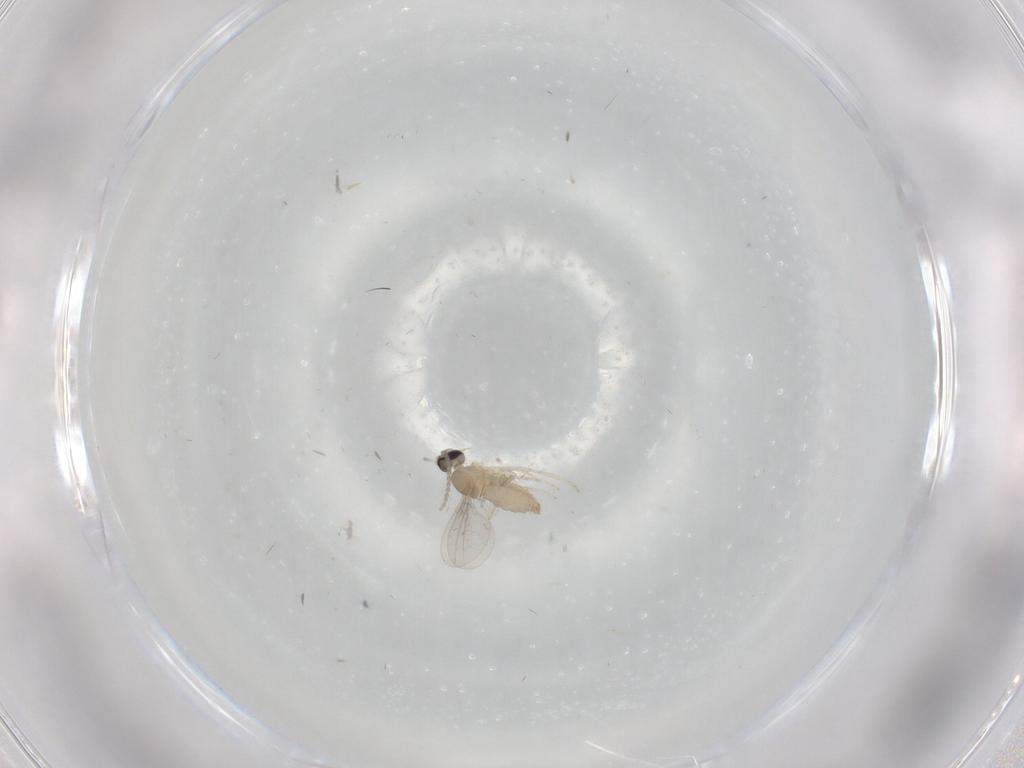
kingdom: Animalia
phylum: Arthropoda
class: Insecta
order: Diptera
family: Cecidomyiidae
